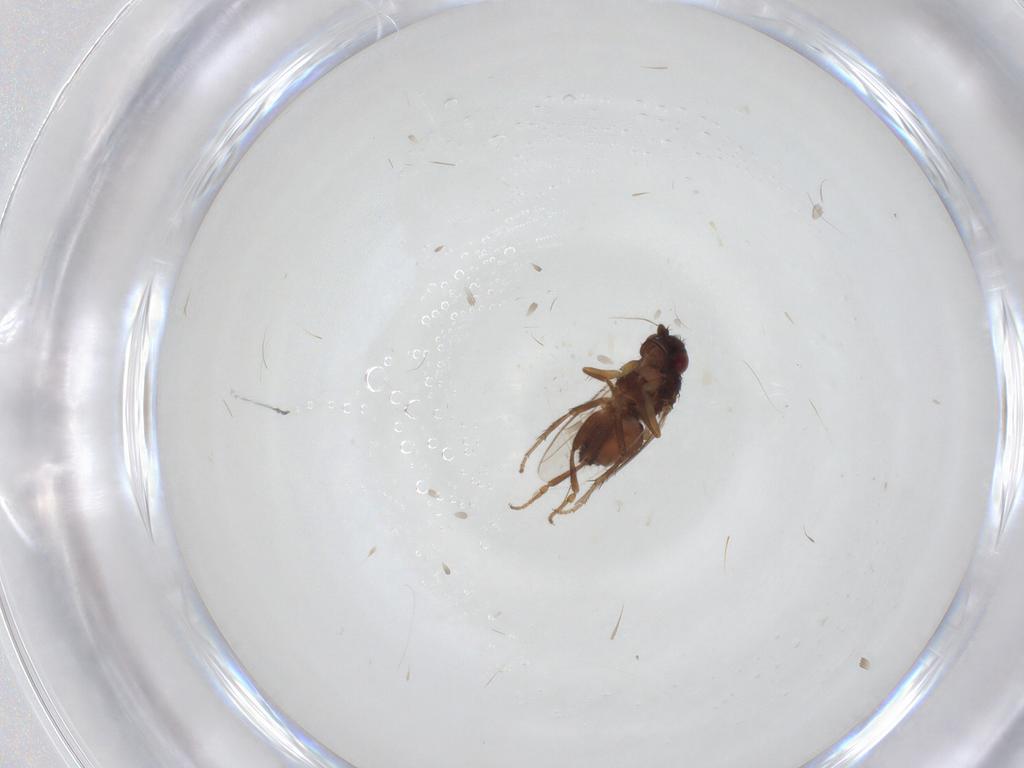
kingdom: Animalia
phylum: Arthropoda
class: Insecta
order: Diptera
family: Sphaeroceridae
